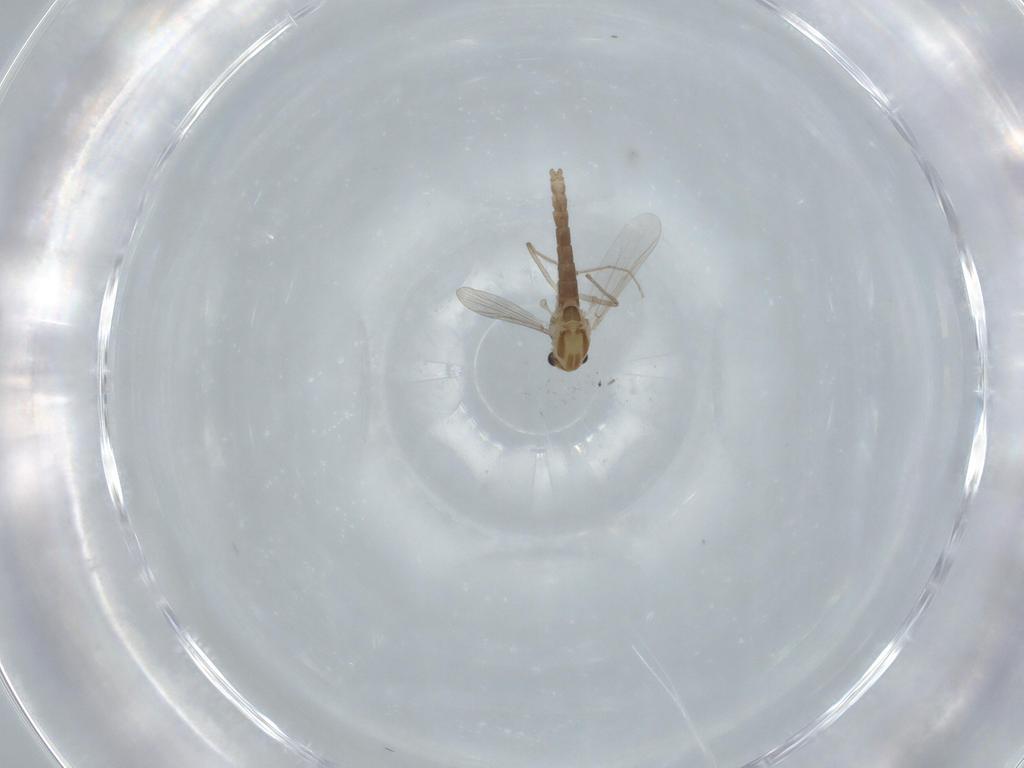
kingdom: Animalia
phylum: Arthropoda
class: Insecta
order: Diptera
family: Chironomidae
